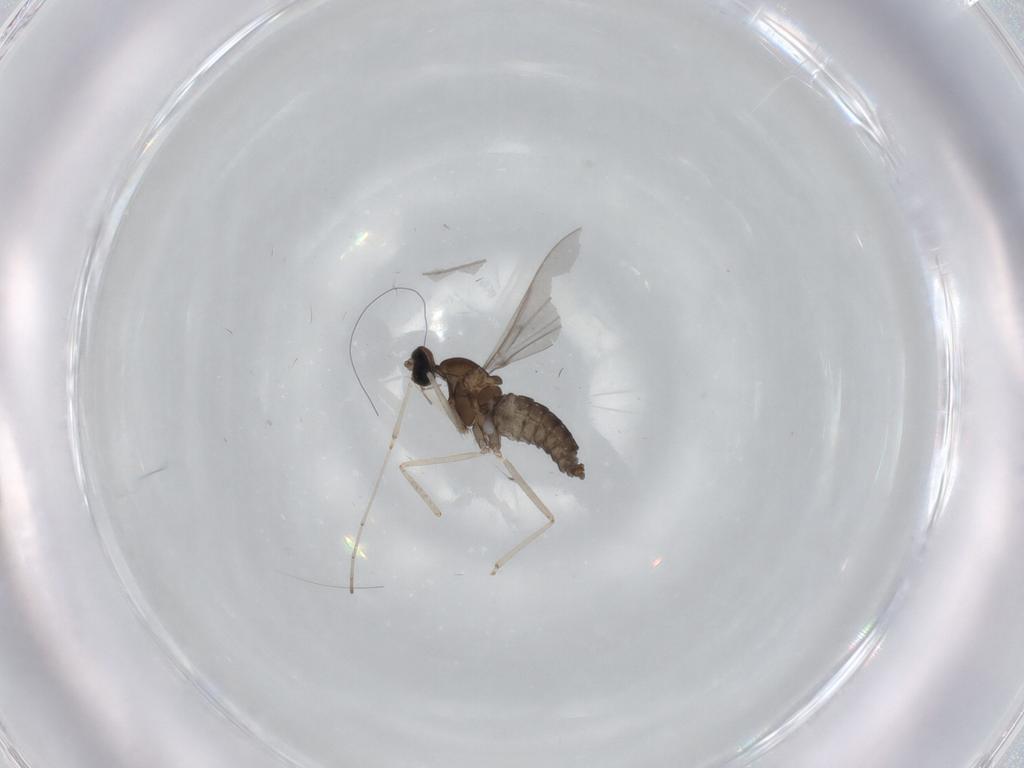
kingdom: Animalia
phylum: Arthropoda
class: Insecta
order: Diptera
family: Cecidomyiidae
